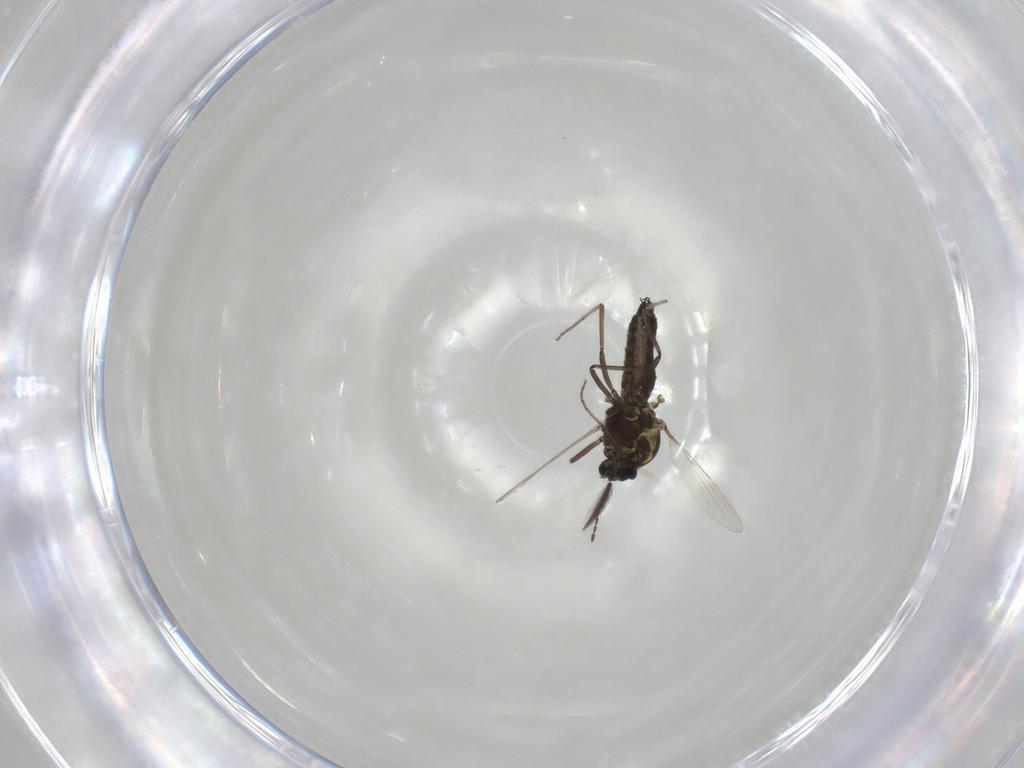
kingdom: Animalia
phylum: Arthropoda
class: Insecta
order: Diptera
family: Ceratopogonidae
